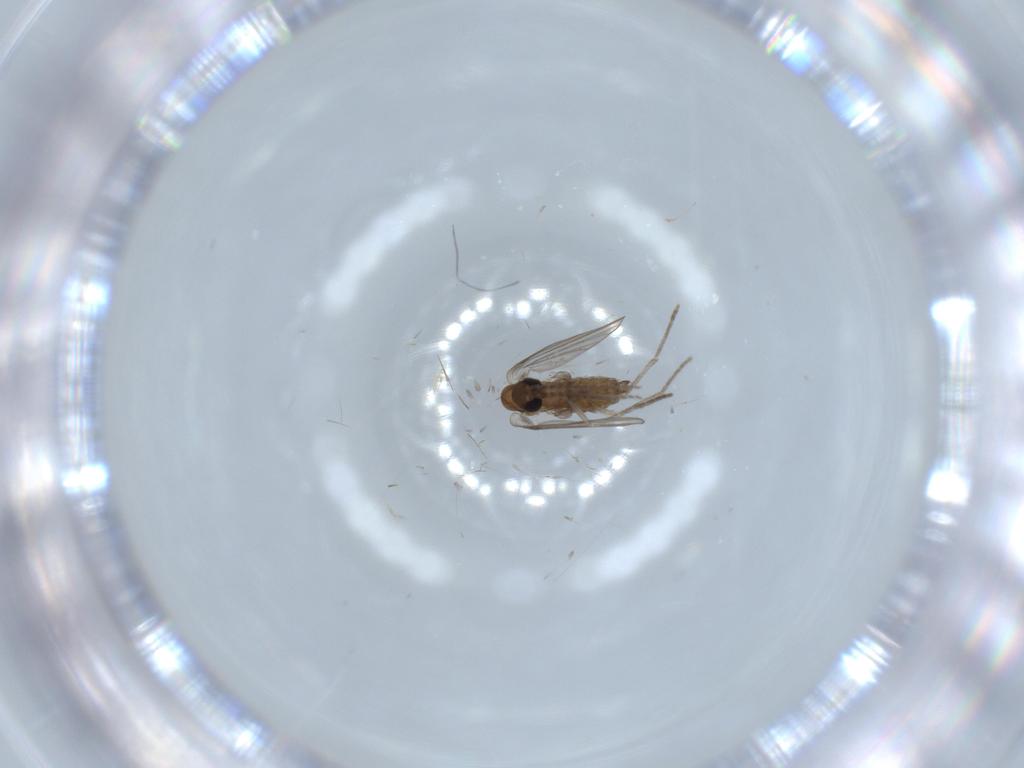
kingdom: Animalia
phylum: Arthropoda
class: Insecta
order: Diptera
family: Psychodidae
